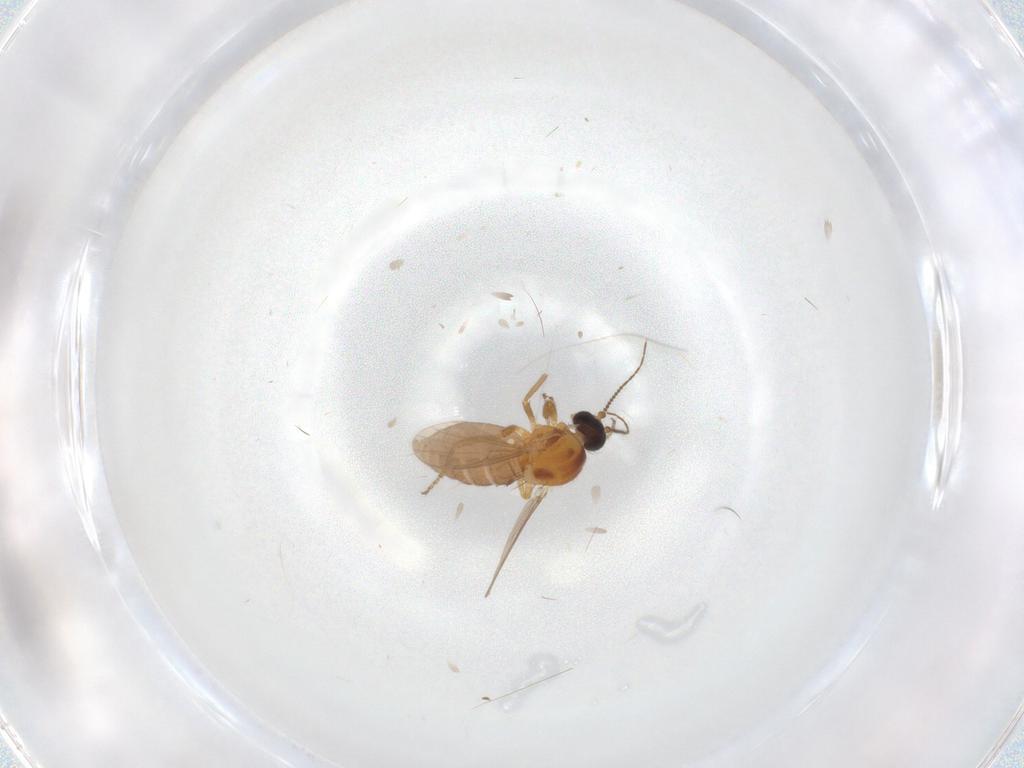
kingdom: Animalia
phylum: Arthropoda
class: Insecta
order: Diptera
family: Ceratopogonidae
